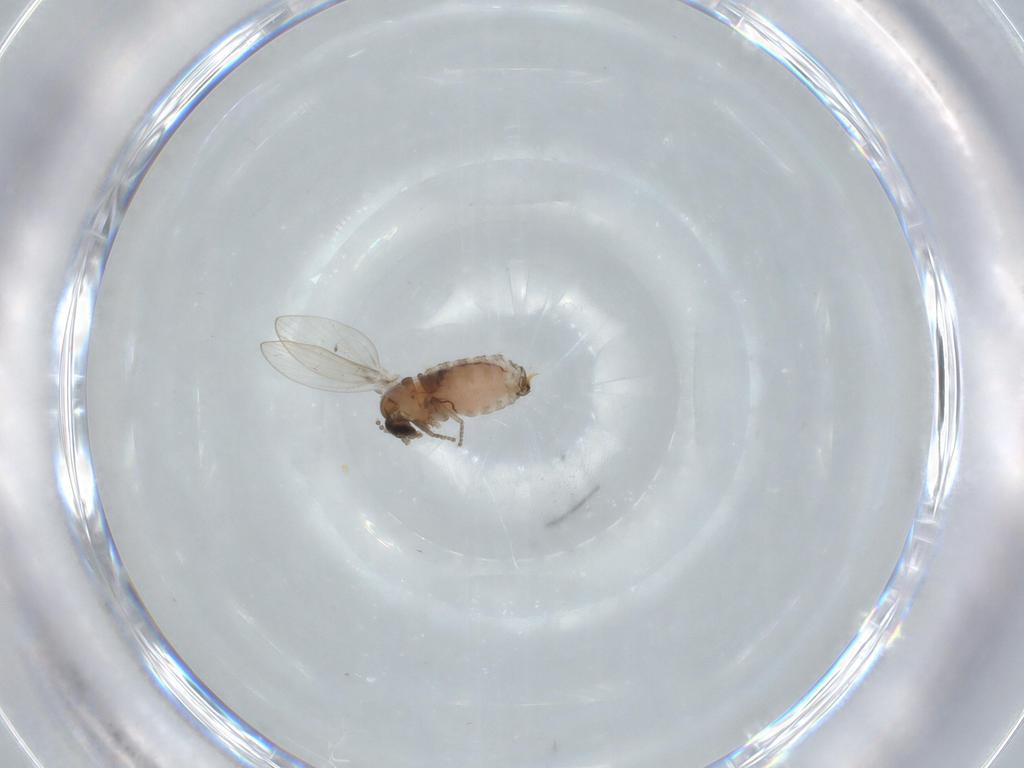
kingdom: Animalia
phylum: Arthropoda
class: Insecta
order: Diptera
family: Psychodidae
